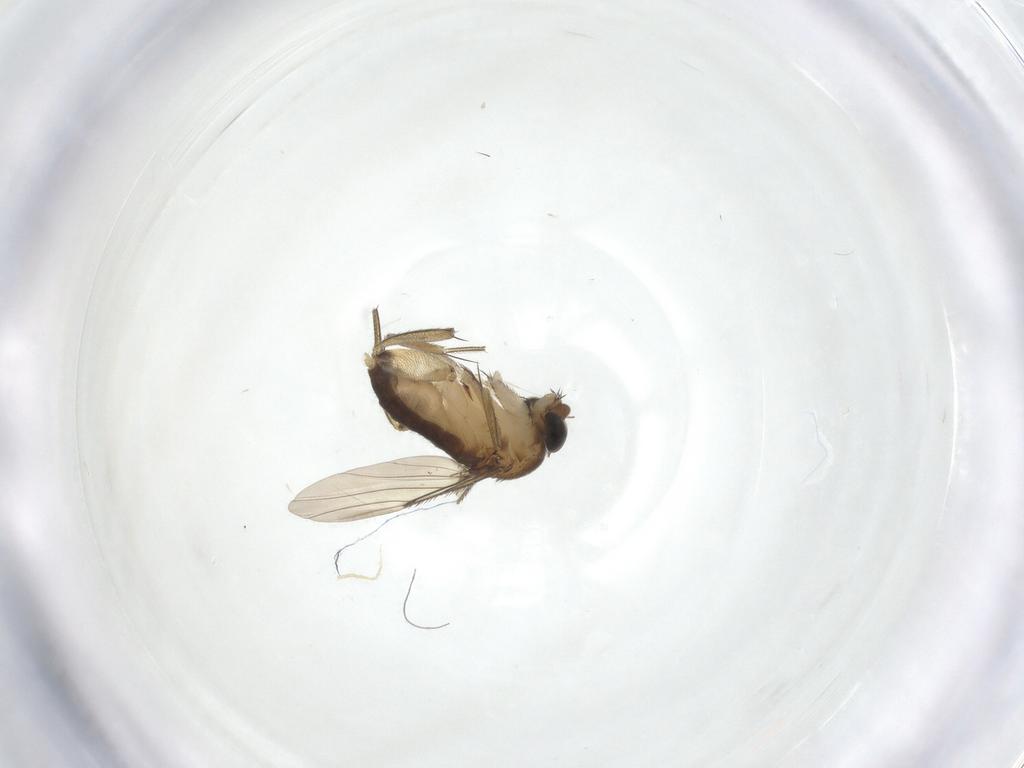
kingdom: Animalia
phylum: Arthropoda
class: Insecta
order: Diptera
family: Phoridae
